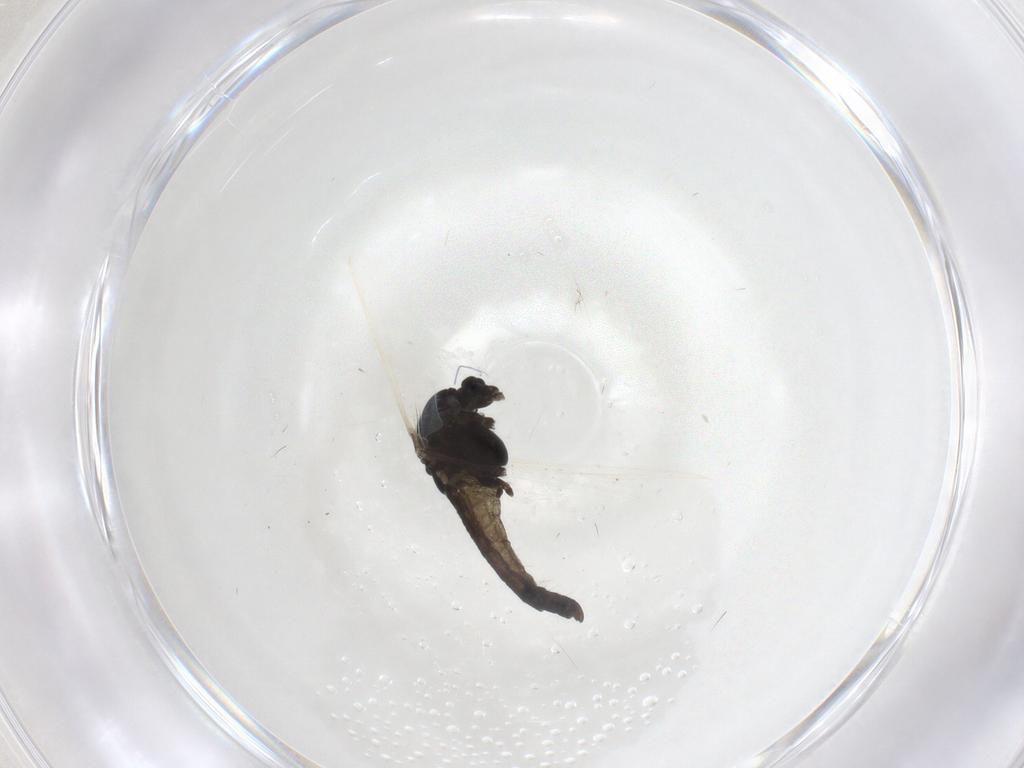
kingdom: Animalia
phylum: Arthropoda
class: Insecta
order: Diptera
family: Chironomidae
